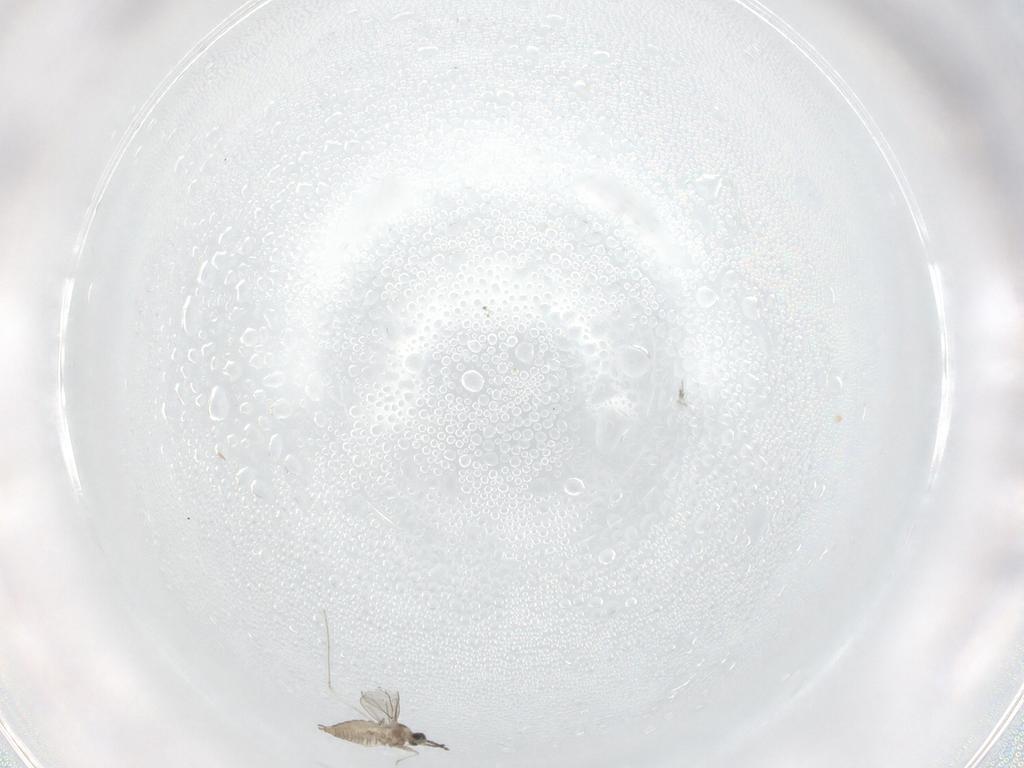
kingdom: Animalia
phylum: Arthropoda
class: Insecta
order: Diptera
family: Cecidomyiidae
